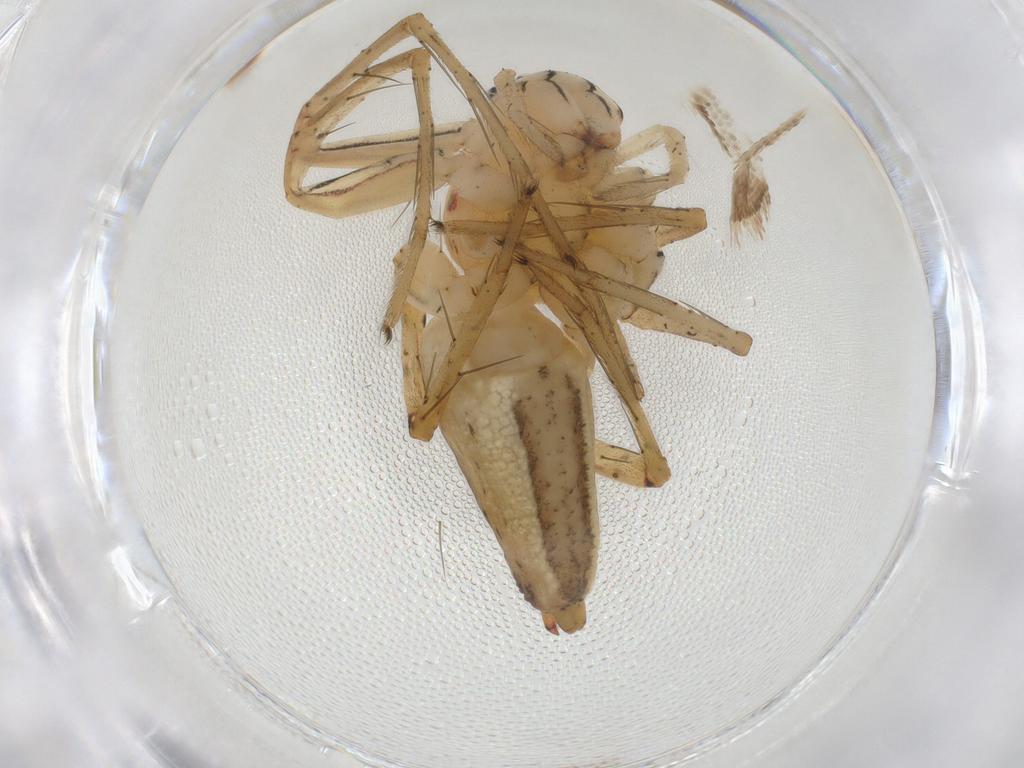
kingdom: Animalia
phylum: Arthropoda
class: Arachnida
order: Araneae
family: Oxyopidae
